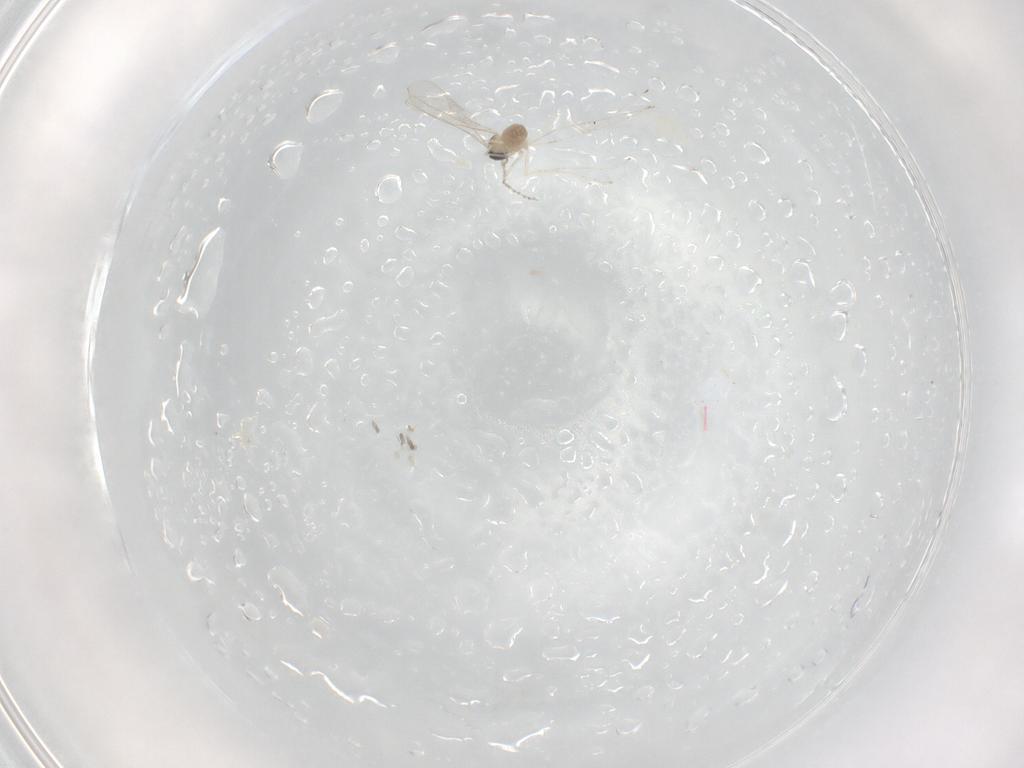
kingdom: Animalia
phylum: Arthropoda
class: Insecta
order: Diptera
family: Cecidomyiidae
